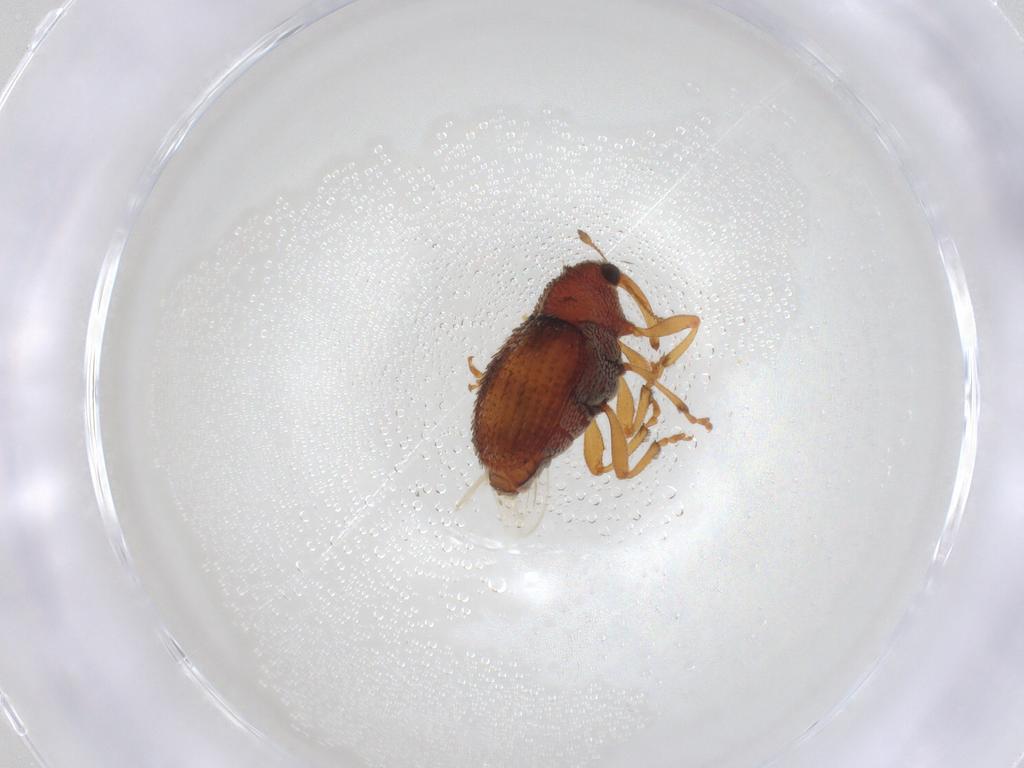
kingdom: Animalia
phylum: Arthropoda
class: Insecta
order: Coleoptera
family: Curculionidae
